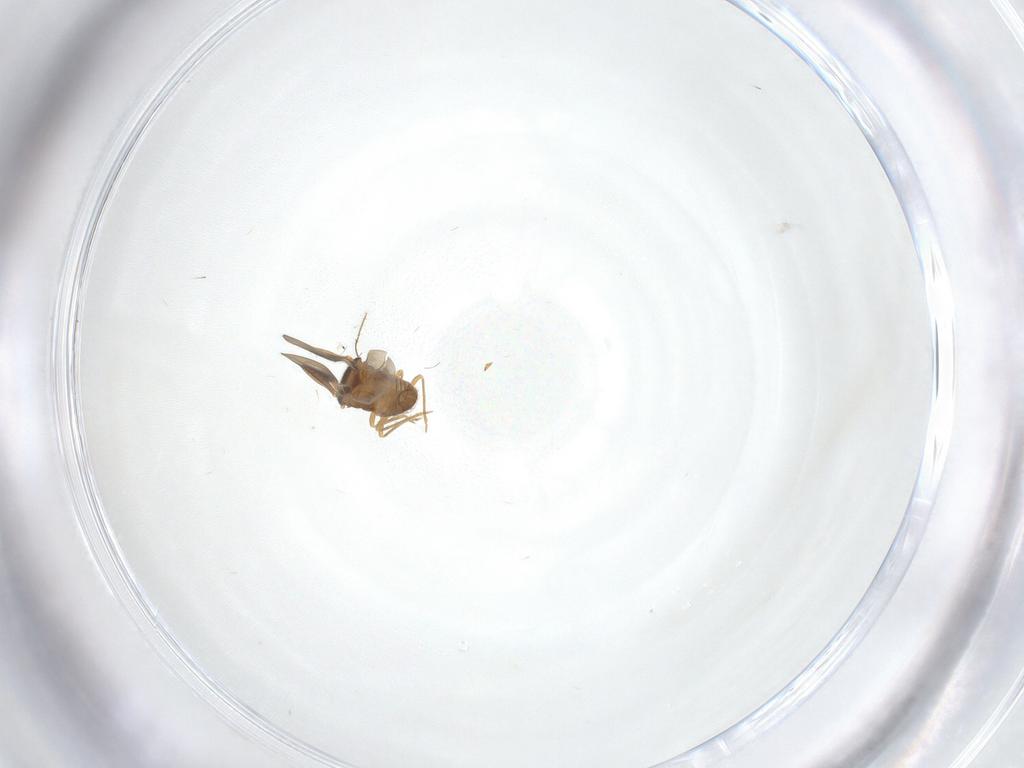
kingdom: Animalia
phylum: Arthropoda
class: Insecta
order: Hemiptera
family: Schizopteridae
